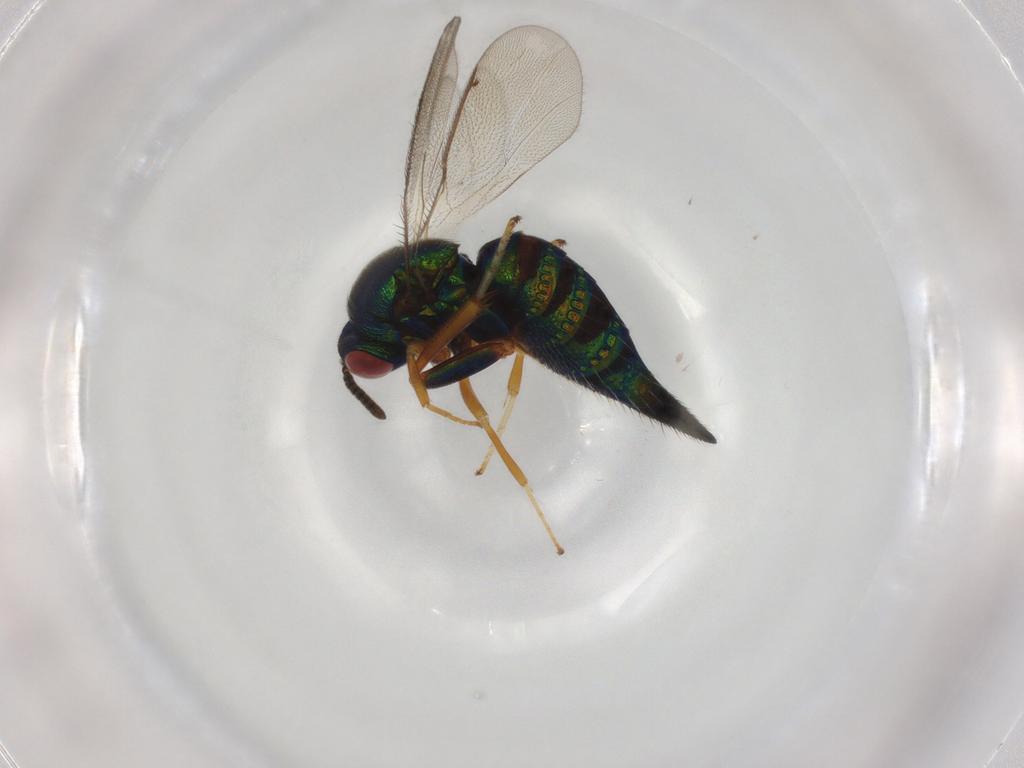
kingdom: Animalia
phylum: Arthropoda
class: Insecta
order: Hymenoptera
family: Ormyridae
